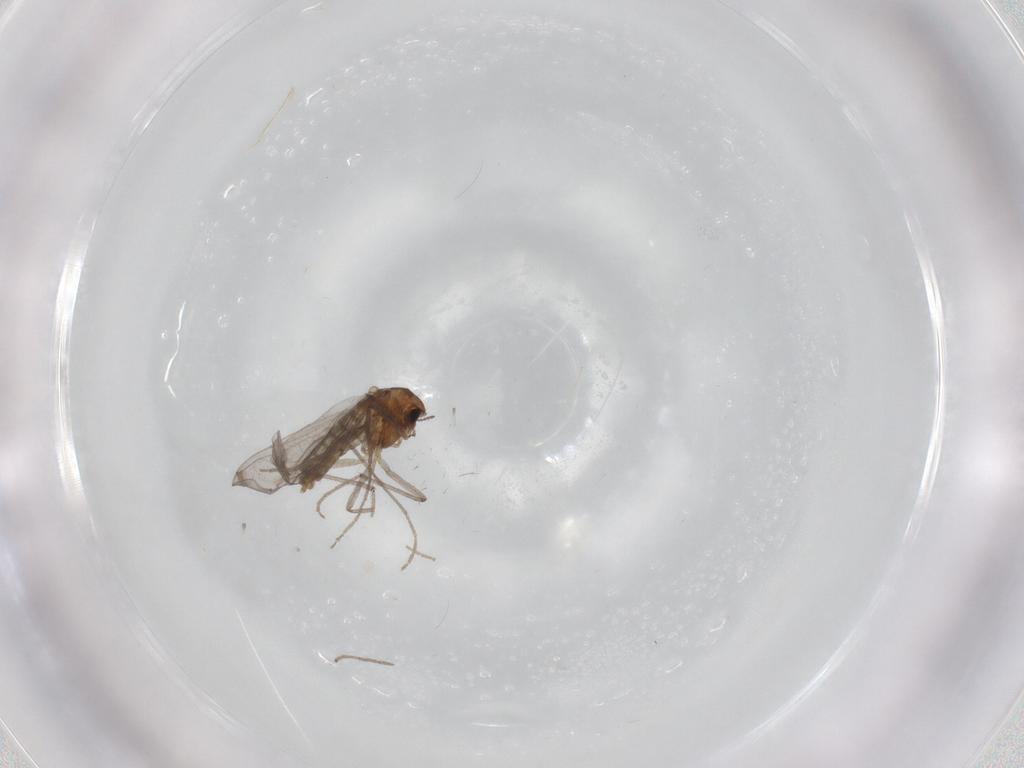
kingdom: Animalia
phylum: Arthropoda
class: Insecta
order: Diptera
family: Chironomidae
